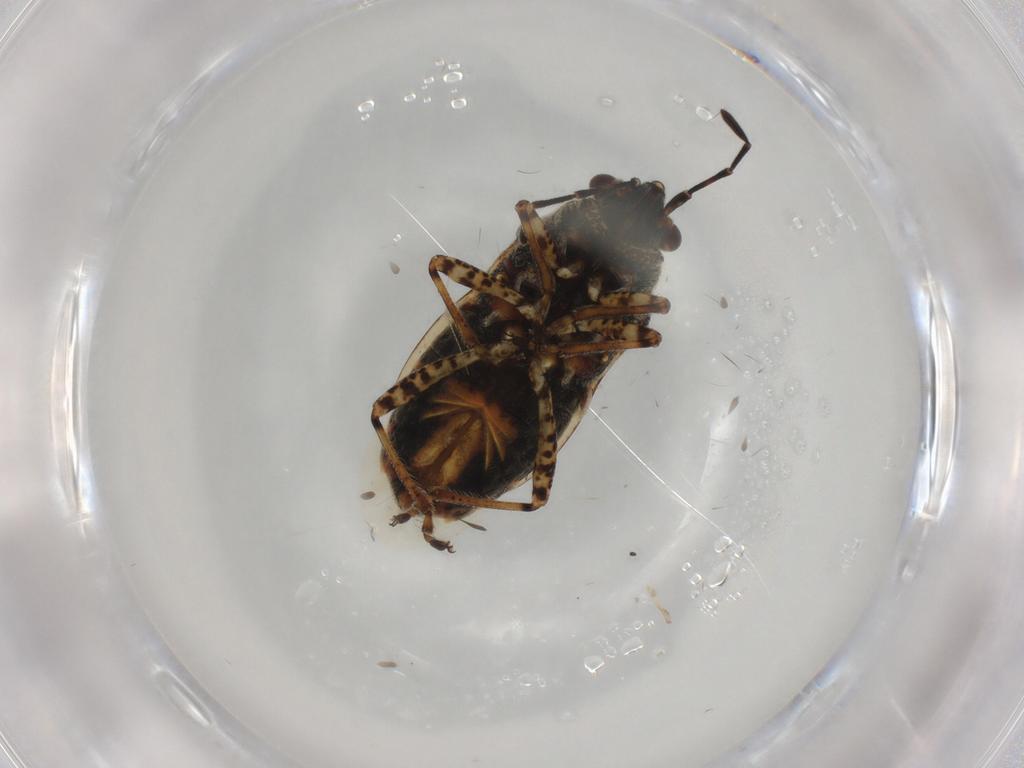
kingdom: Animalia
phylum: Arthropoda
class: Insecta
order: Hemiptera
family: Lygaeidae
